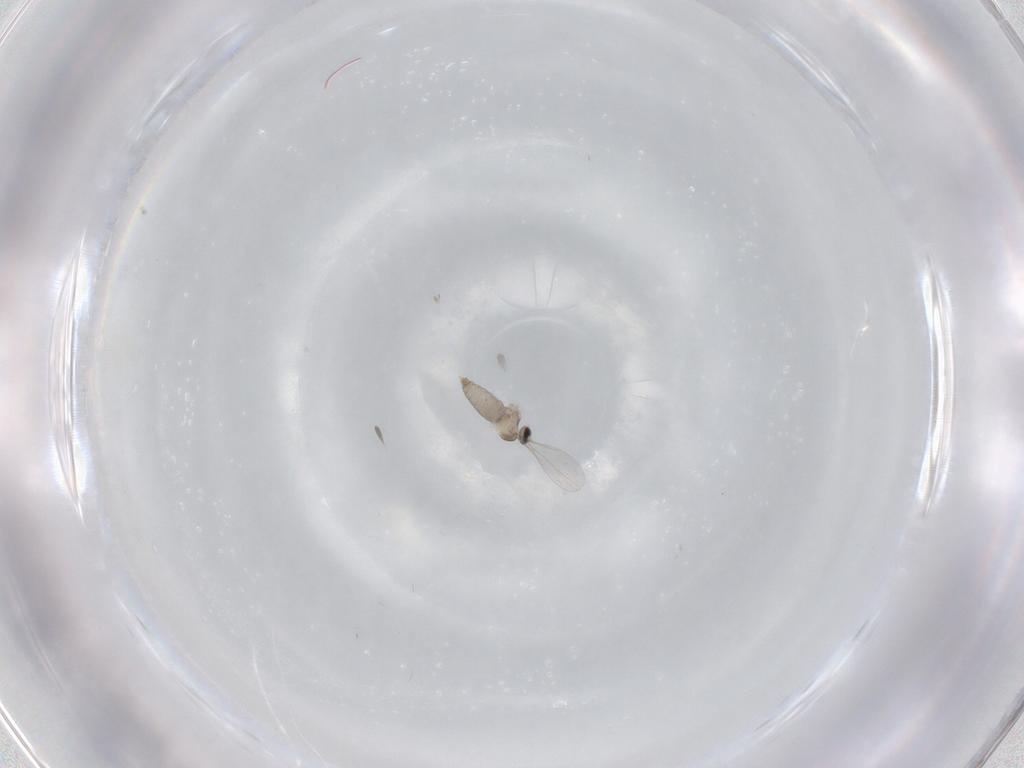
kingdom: Animalia
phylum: Arthropoda
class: Insecta
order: Diptera
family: Cecidomyiidae
